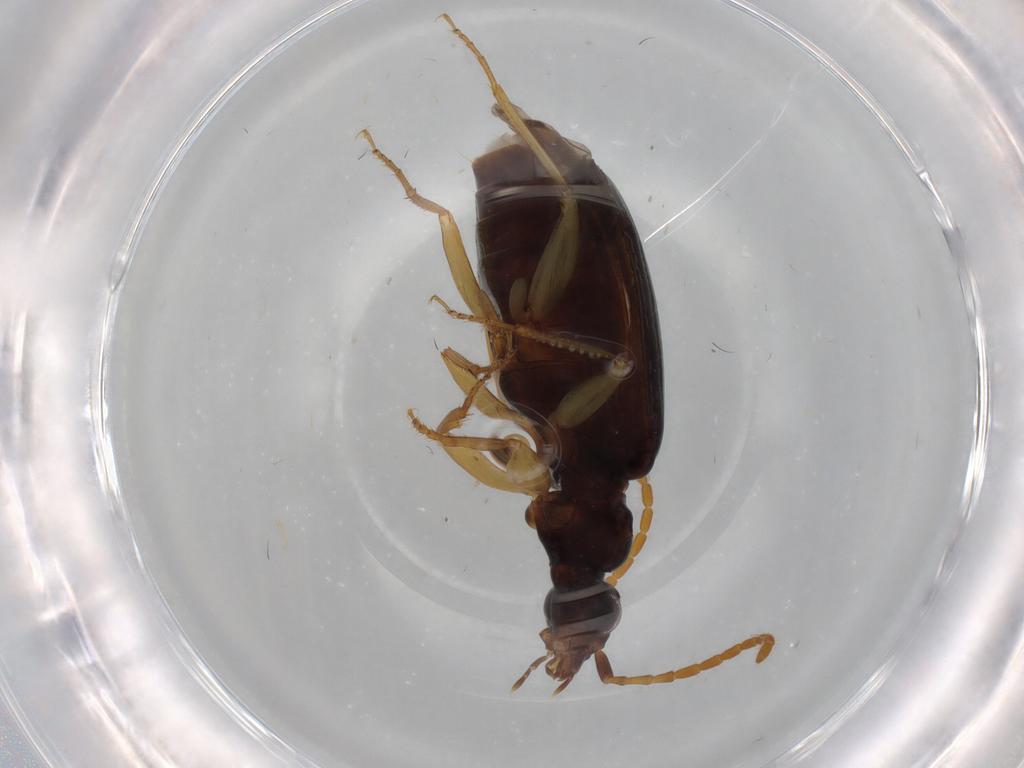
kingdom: Animalia
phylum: Arthropoda
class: Insecta
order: Coleoptera
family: Carabidae
